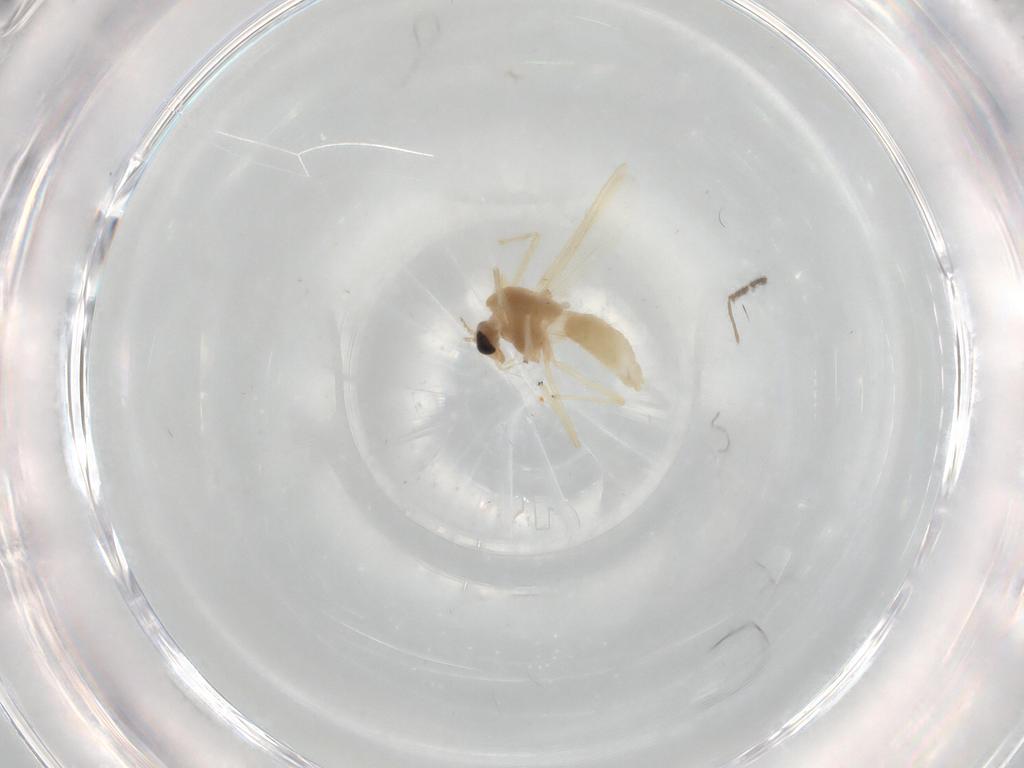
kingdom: Animalia
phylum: Arthropoda
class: Insecta
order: Diptera
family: Chironomidae
